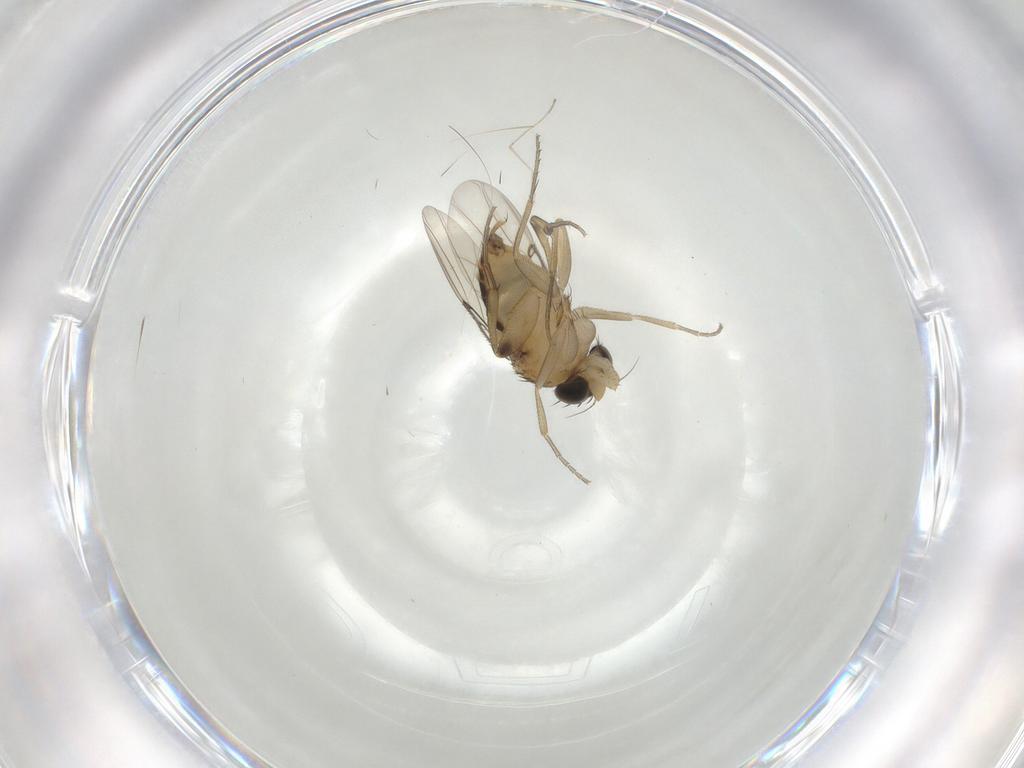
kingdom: Animalia
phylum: Arthropoda
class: Insecta
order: Diptera
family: Phoridae
